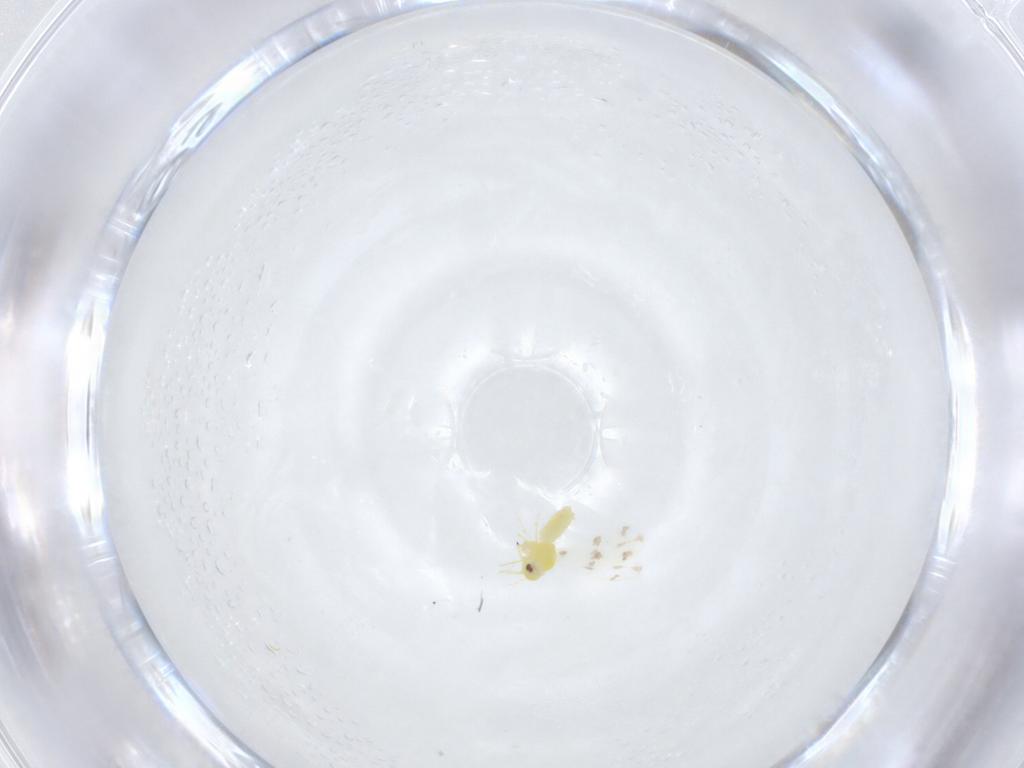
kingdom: Animalia
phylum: Arthropoda
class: Insecta
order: Hemiptera
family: Aleyrodidae
